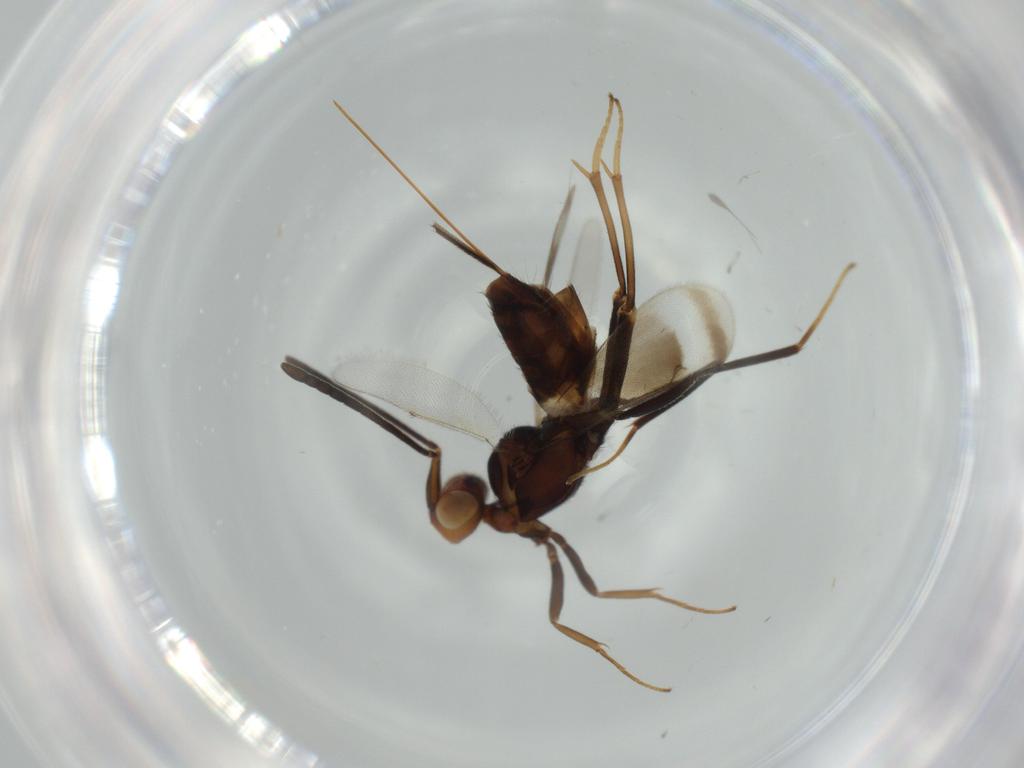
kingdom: Animalia
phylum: Arthropoda
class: Insecta
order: Hymenoptera
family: Eupelmidae
